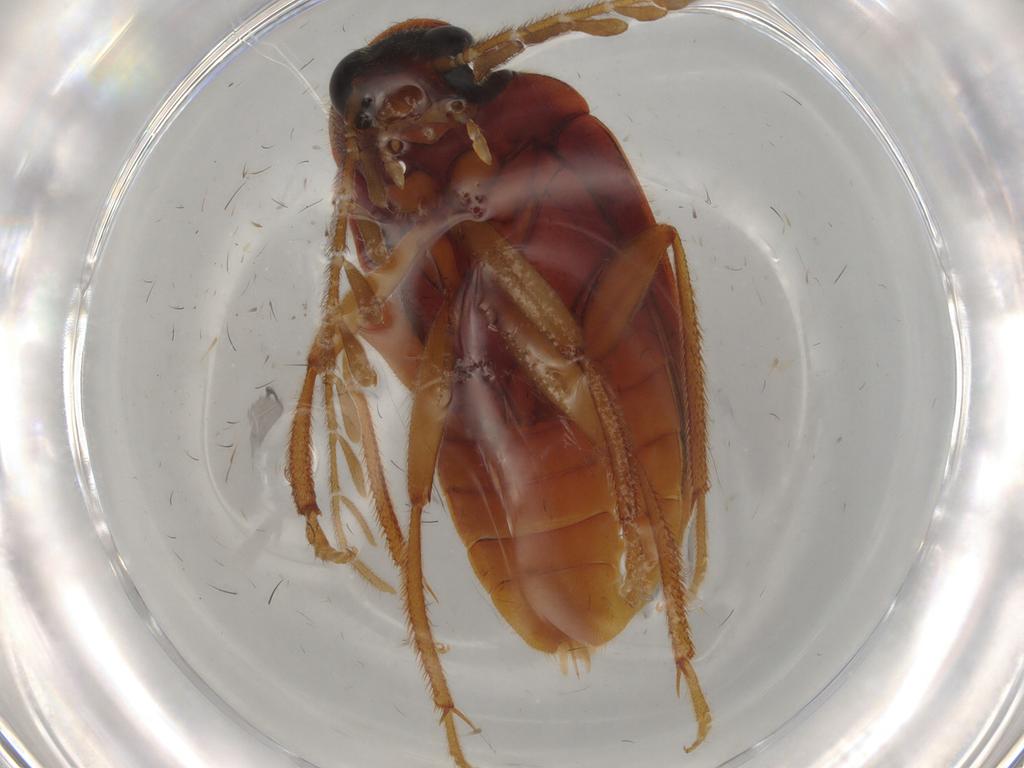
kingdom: Animalia
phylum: Arthropoda
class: Insecta
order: Coleoptera
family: Ptilodactylidae
